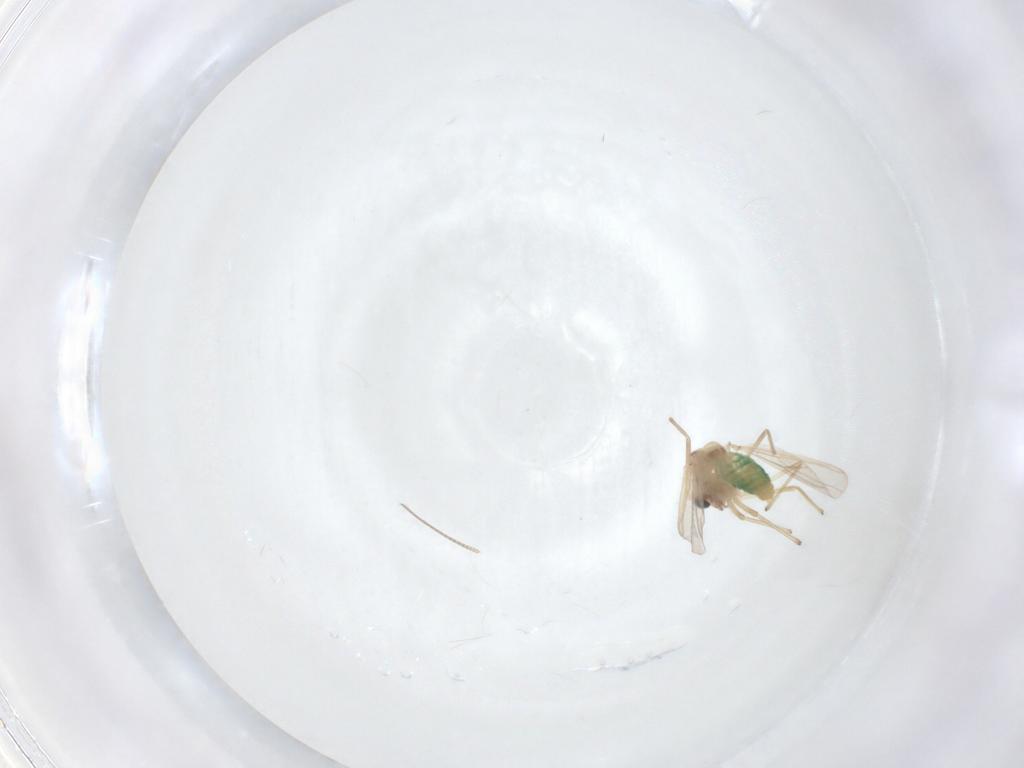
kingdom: Animalia
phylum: Arthropoda
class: Insecta
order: Diptera
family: Chironomidae
